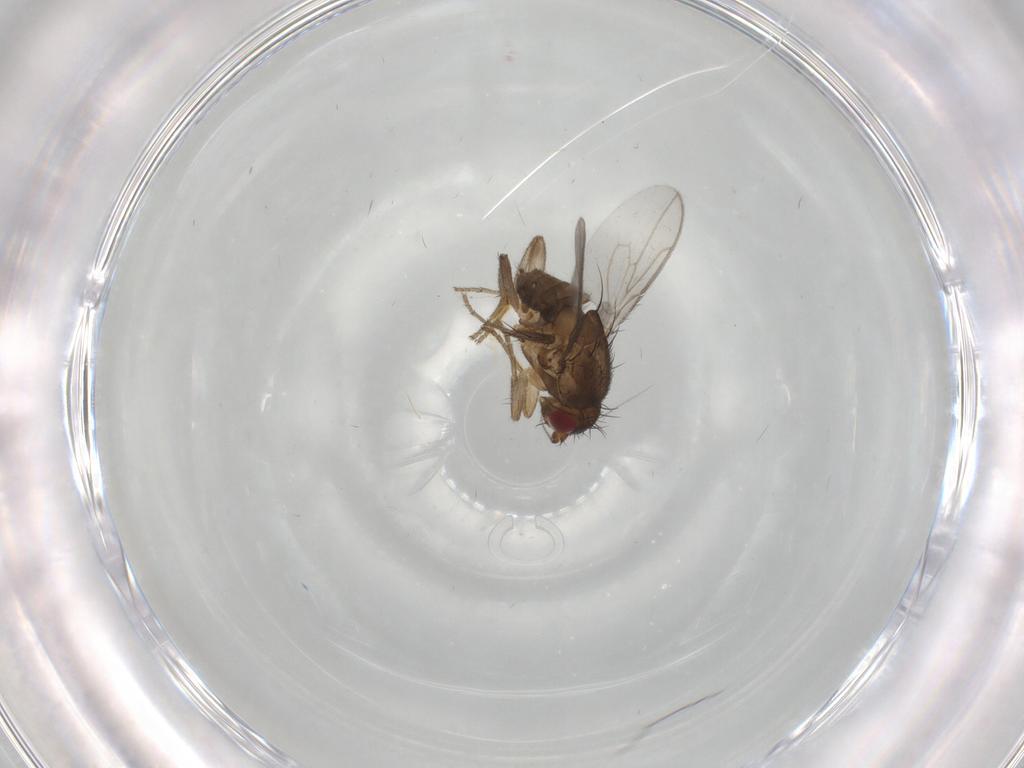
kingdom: Animalia
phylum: Arthropoda
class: Insecta
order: Diptera
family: Sphaeroceridae
